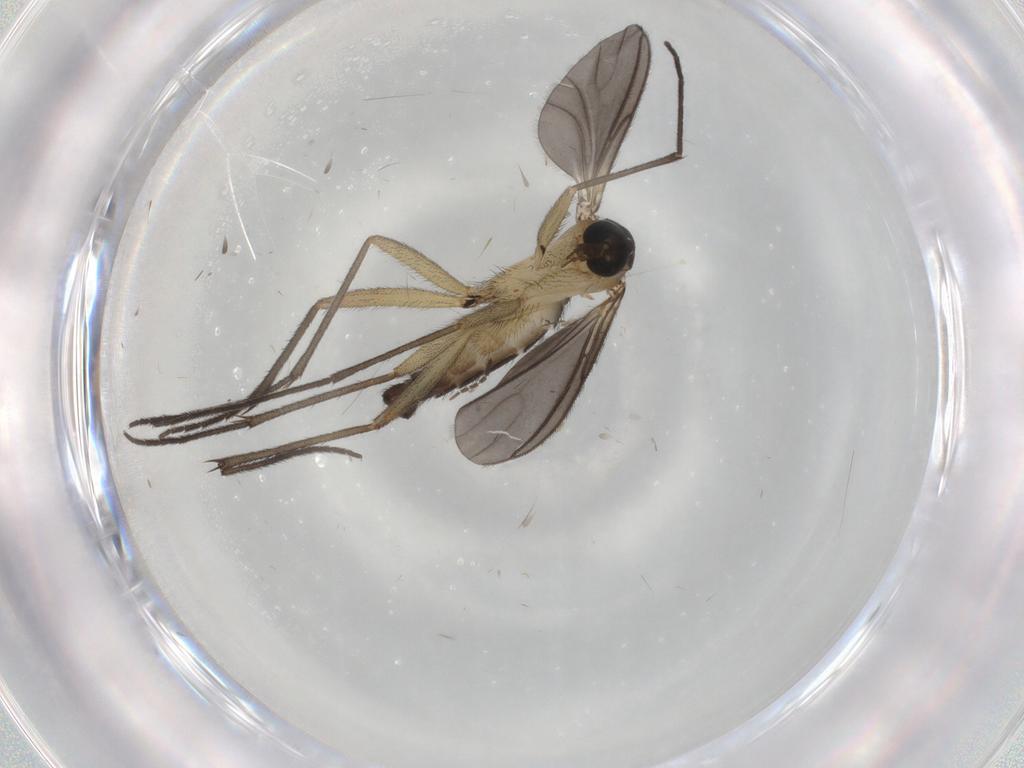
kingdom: Animalia
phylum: Arthropoda
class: Insecta
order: Diptera
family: Sciaridae
